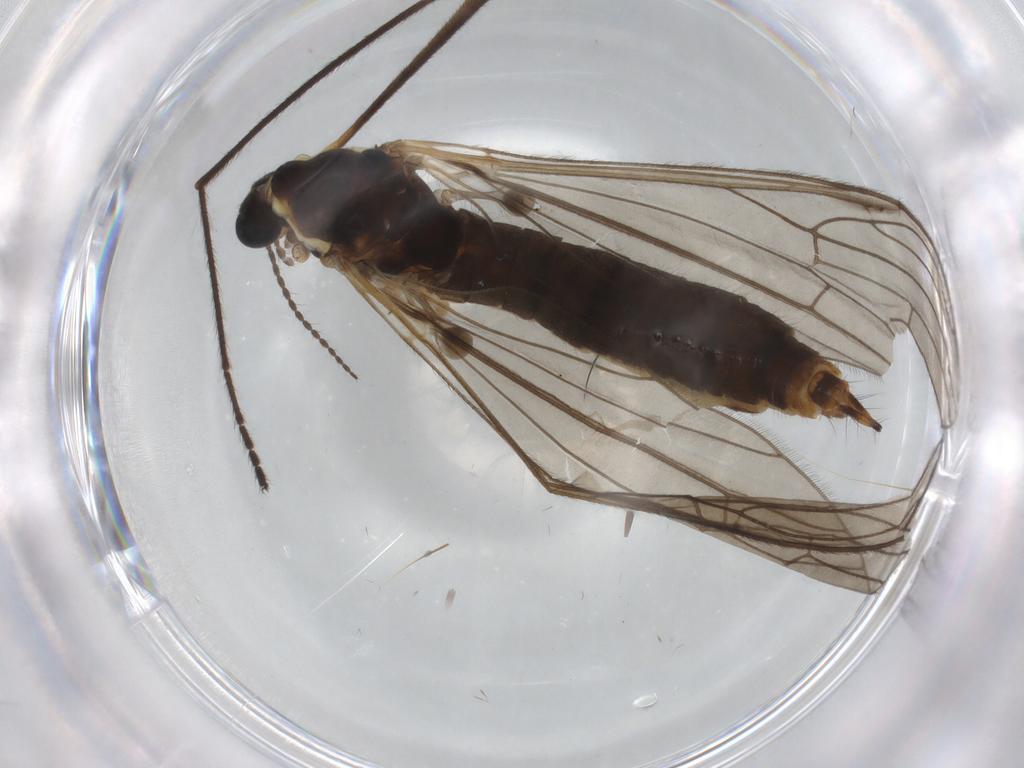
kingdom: Animalia
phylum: Arthropoda
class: Insecta
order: Diptera
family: Limoniidae
